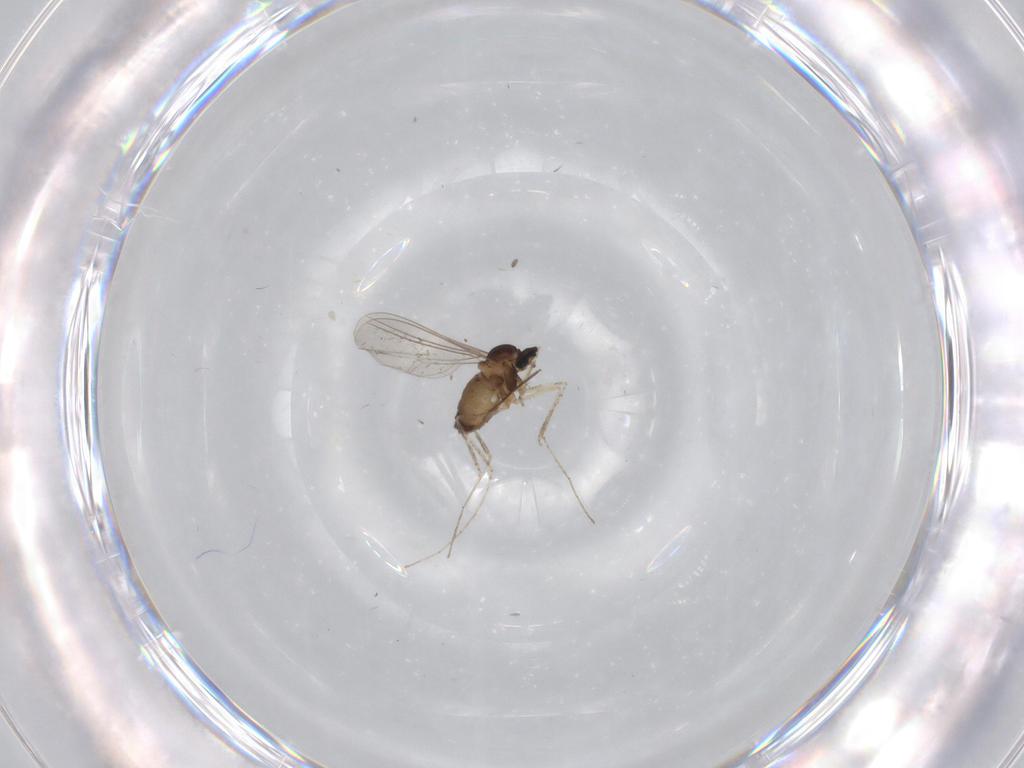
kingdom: Animalia
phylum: Arthropoda
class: Insecta
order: Diptera
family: Cecidomyiidae
